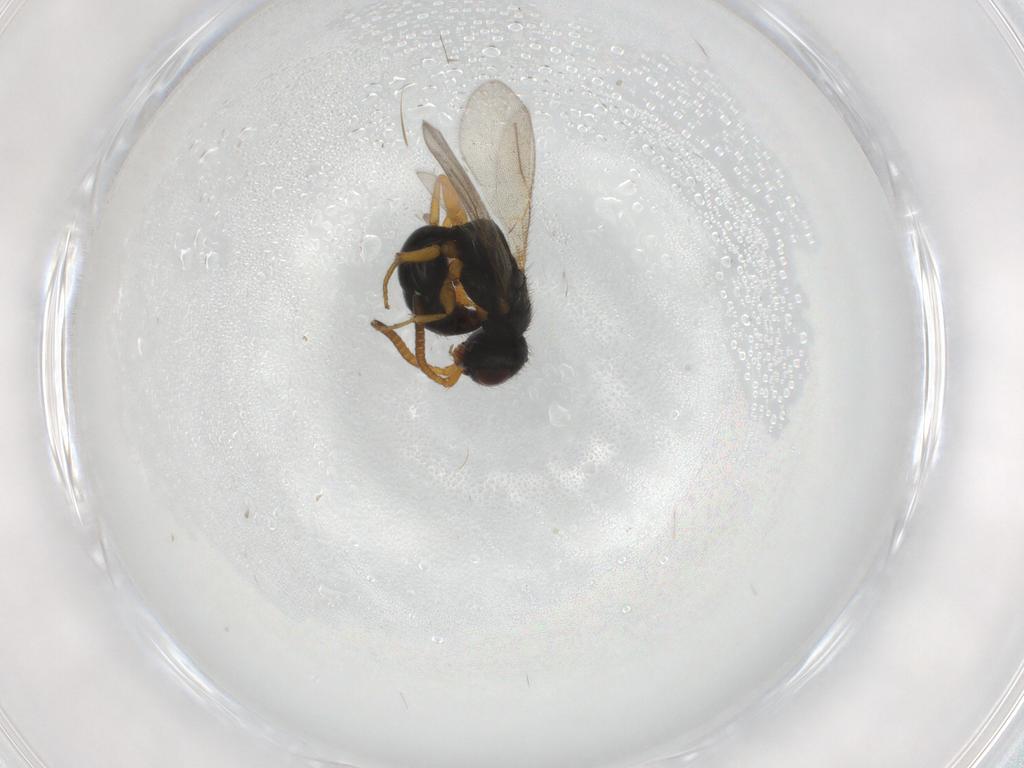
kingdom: Animalia
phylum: Arthropoda
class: Insecta
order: Hymenoptera
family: Bethylidae
